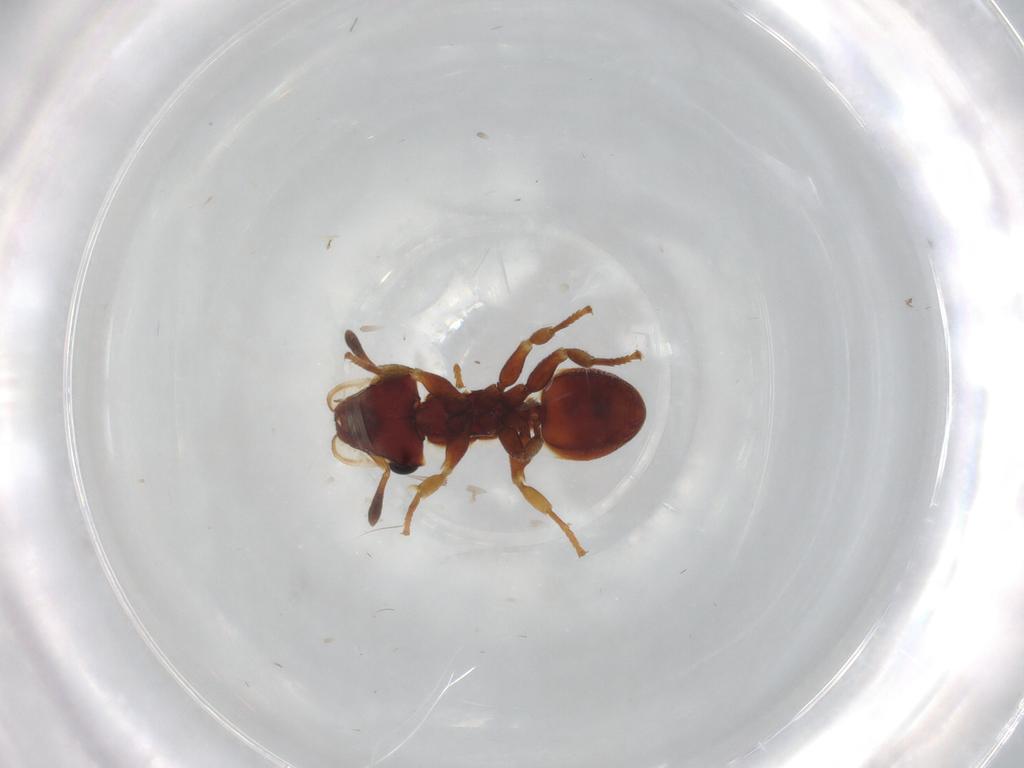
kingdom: Animalia
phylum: Arthropoda
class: Insecta
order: Hymenoptera
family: Formicidae
